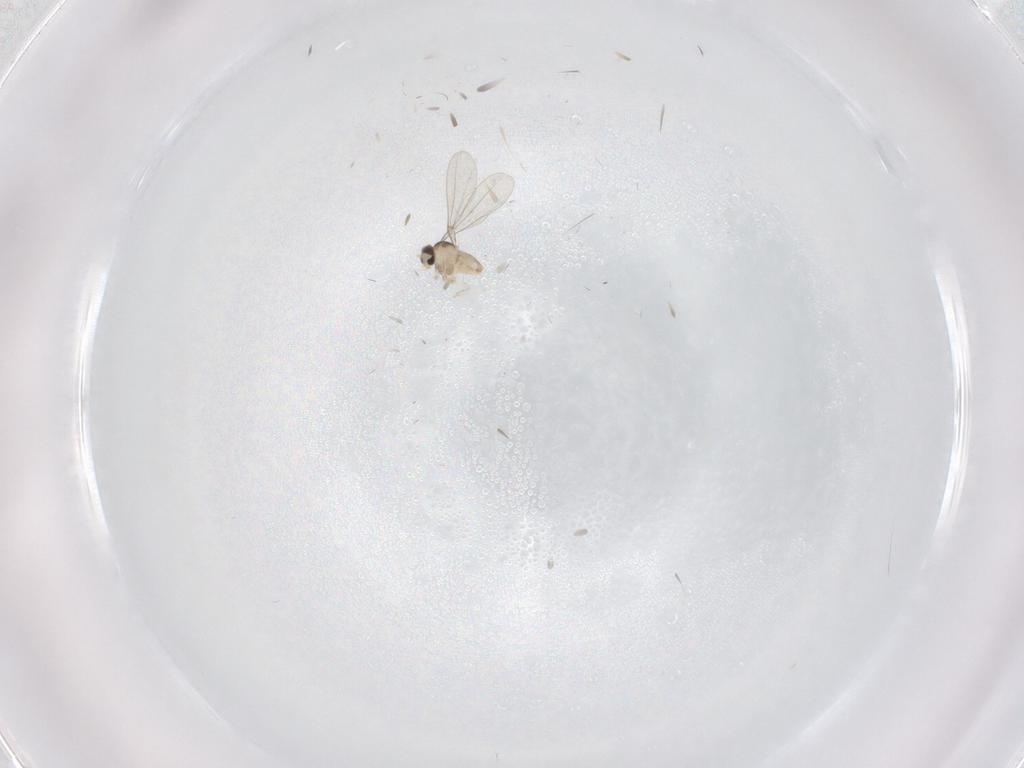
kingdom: Animalia
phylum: Arthropoda
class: Insecta
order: Diptera
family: Cecidomyiidae
